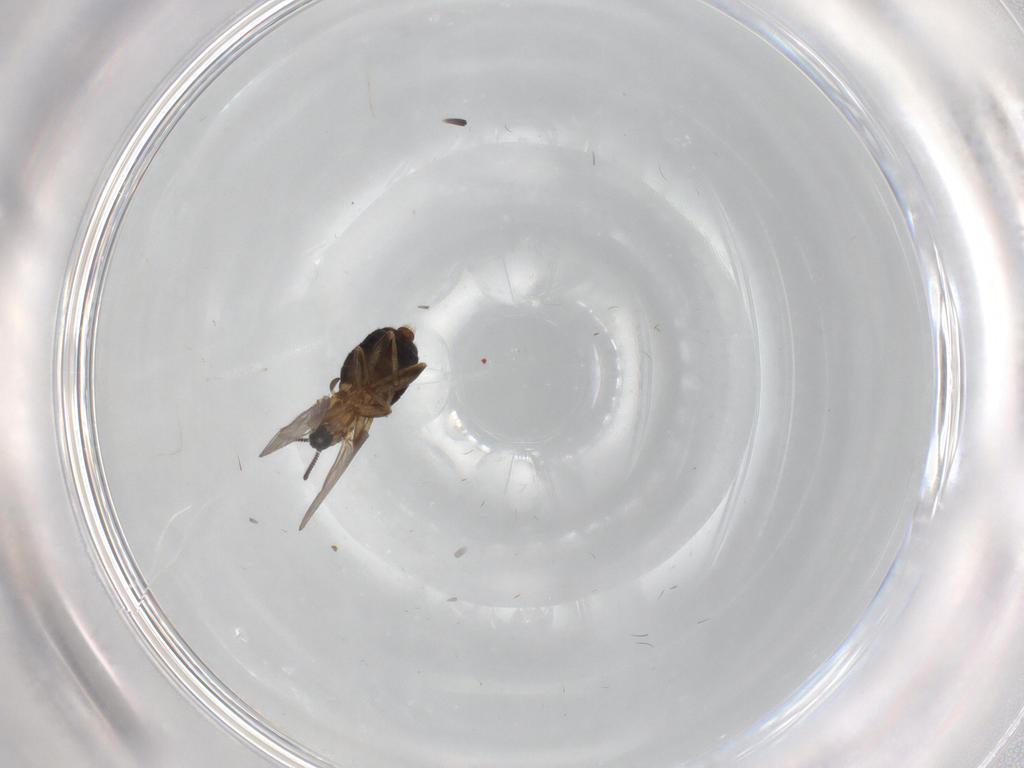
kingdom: Animalia
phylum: Arthropoda
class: Insecta
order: Diptera
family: Scatopsidae
